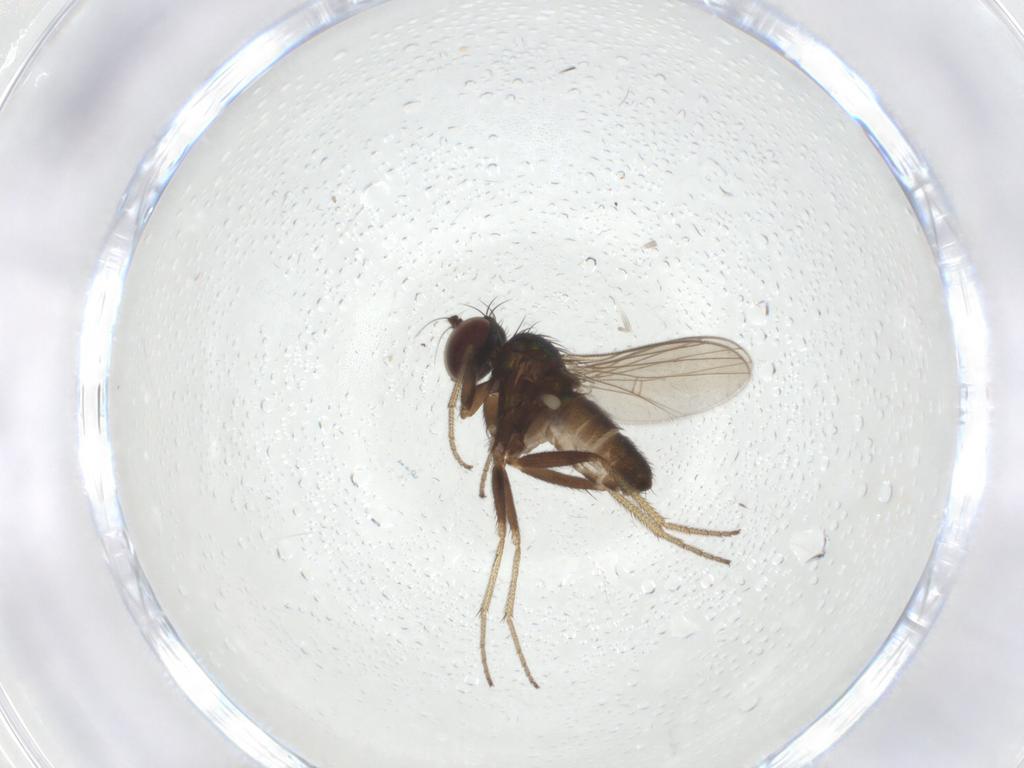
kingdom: Animalia
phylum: Arthropoda
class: Insecta
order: Diptera
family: Dolichopodidae
